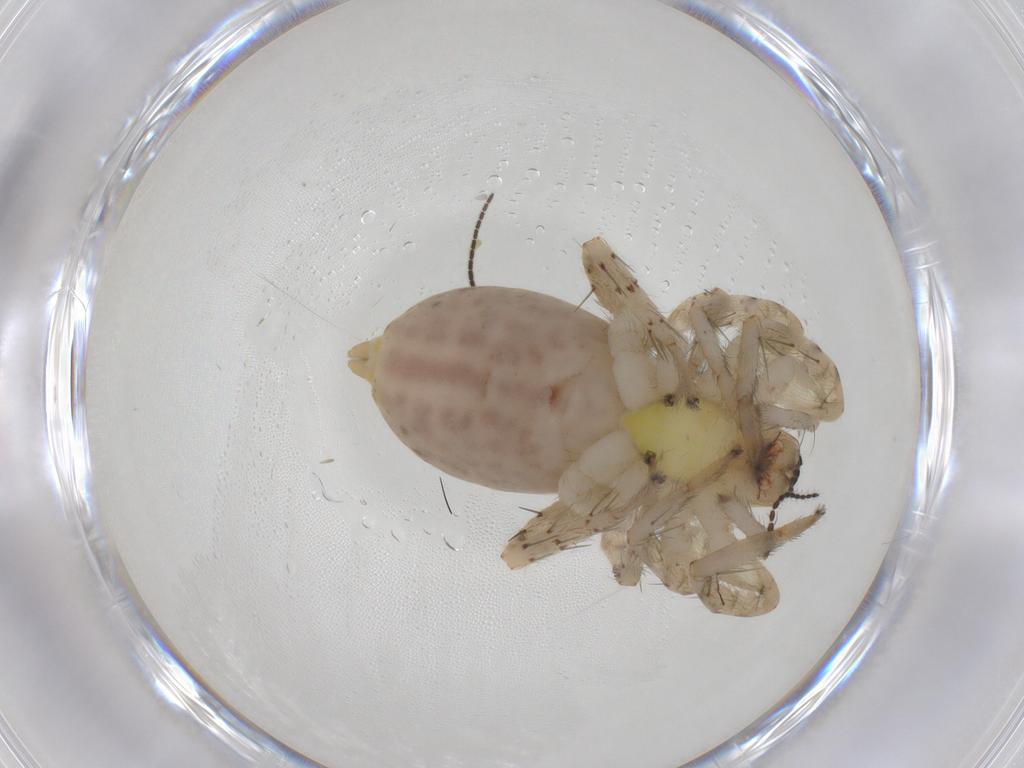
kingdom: Animalia
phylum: Arthropoda
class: Arachnida
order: Araneae
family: Anyphaenidae
